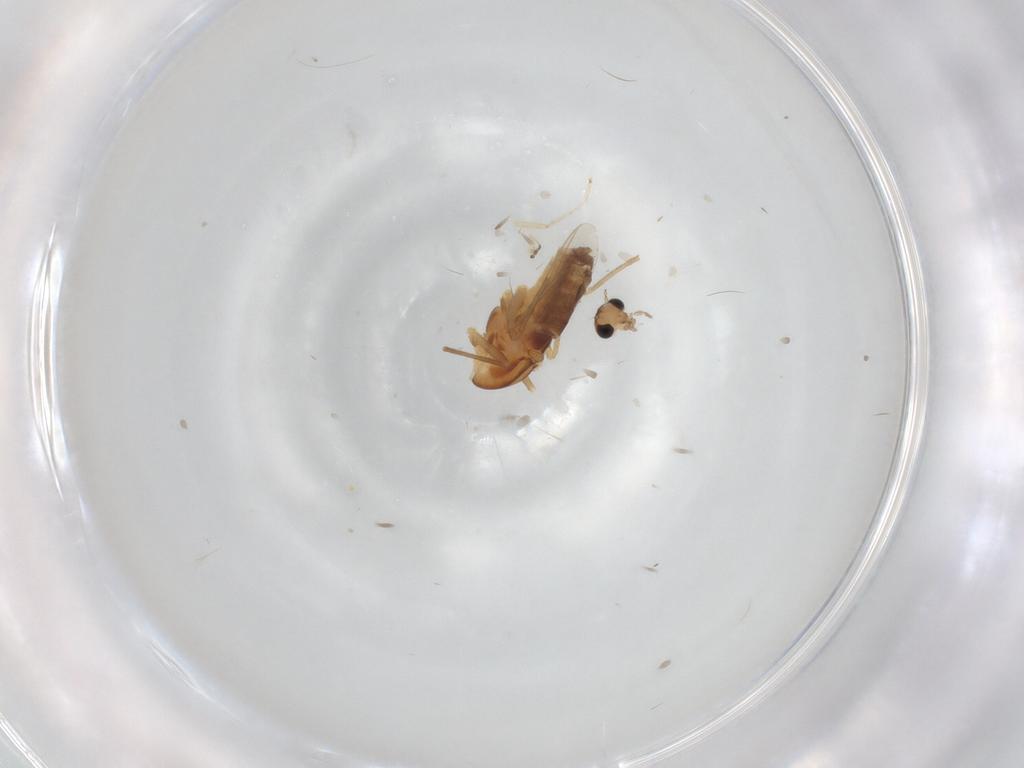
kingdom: Animalia
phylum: Arthropoda
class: Insecta
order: Diptera
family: Chironomidae
